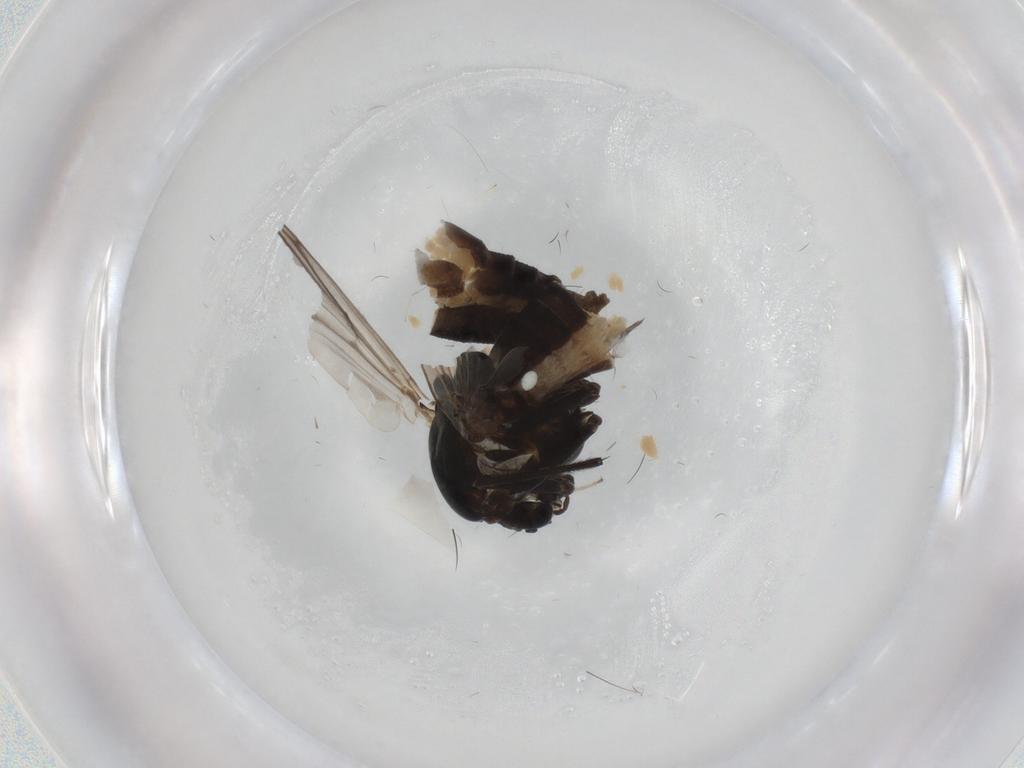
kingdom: Animalia
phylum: Arthropoda
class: Insecta
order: Diptera
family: Chironomidae
